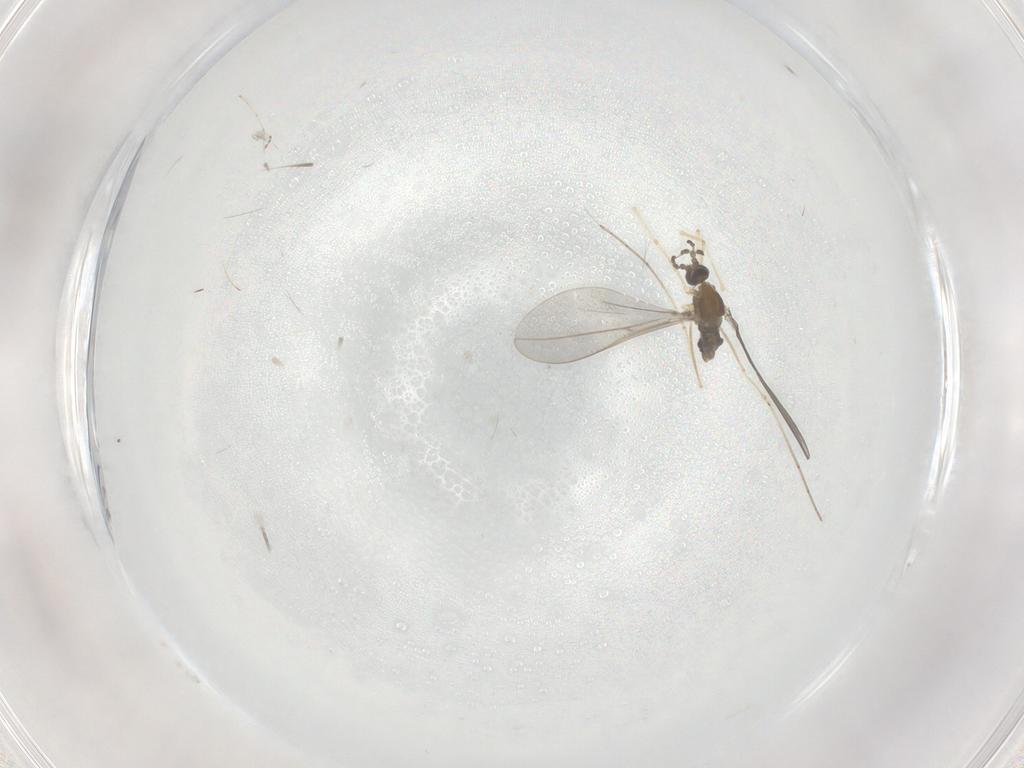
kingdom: Animalia
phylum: Arthropoda
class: Insecta
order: Diptera
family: Cecidomyiidae
